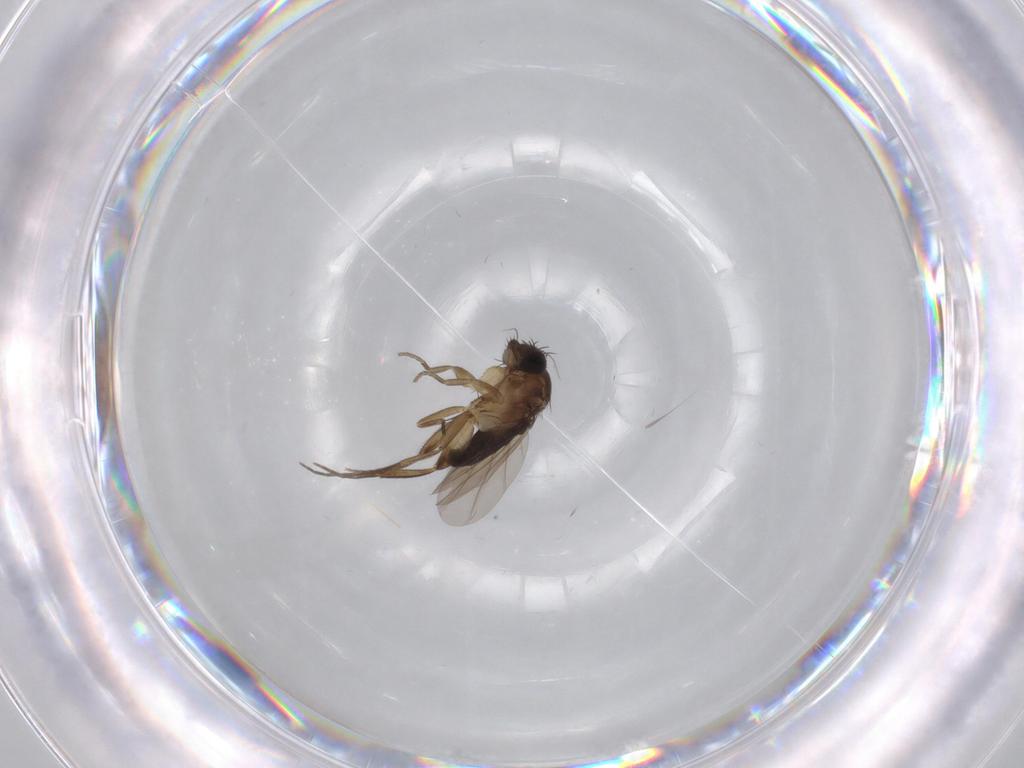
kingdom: Animalia
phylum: Arthropoda
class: Insecta
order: Diptera
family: Phoridae
